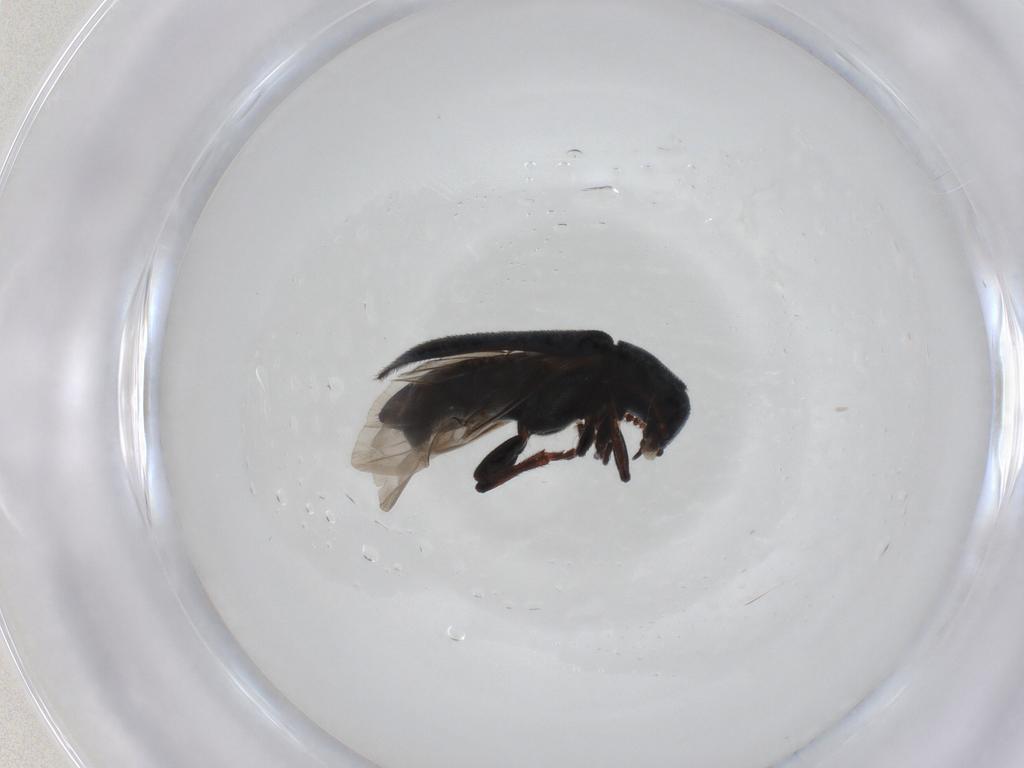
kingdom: Animalia
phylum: Arthropoda
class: Insecta
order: Coleoptera
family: Melyridae
